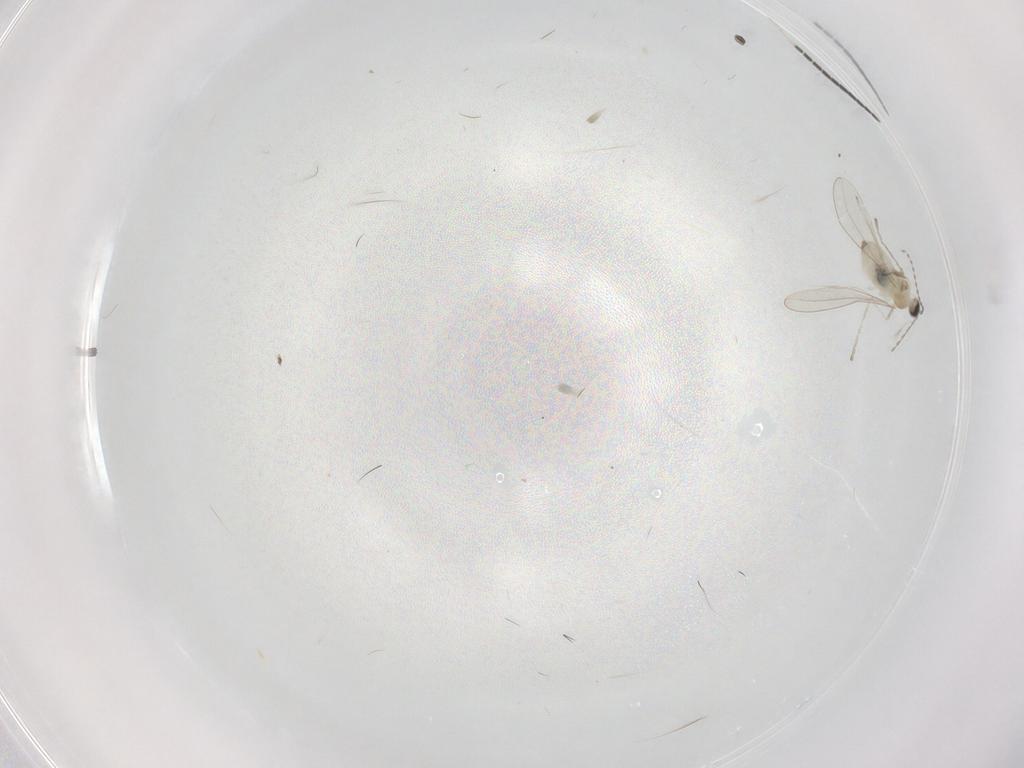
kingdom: Animalia
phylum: Arthropoda
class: Insecta
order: Diptera
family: Cecidomyiidae
